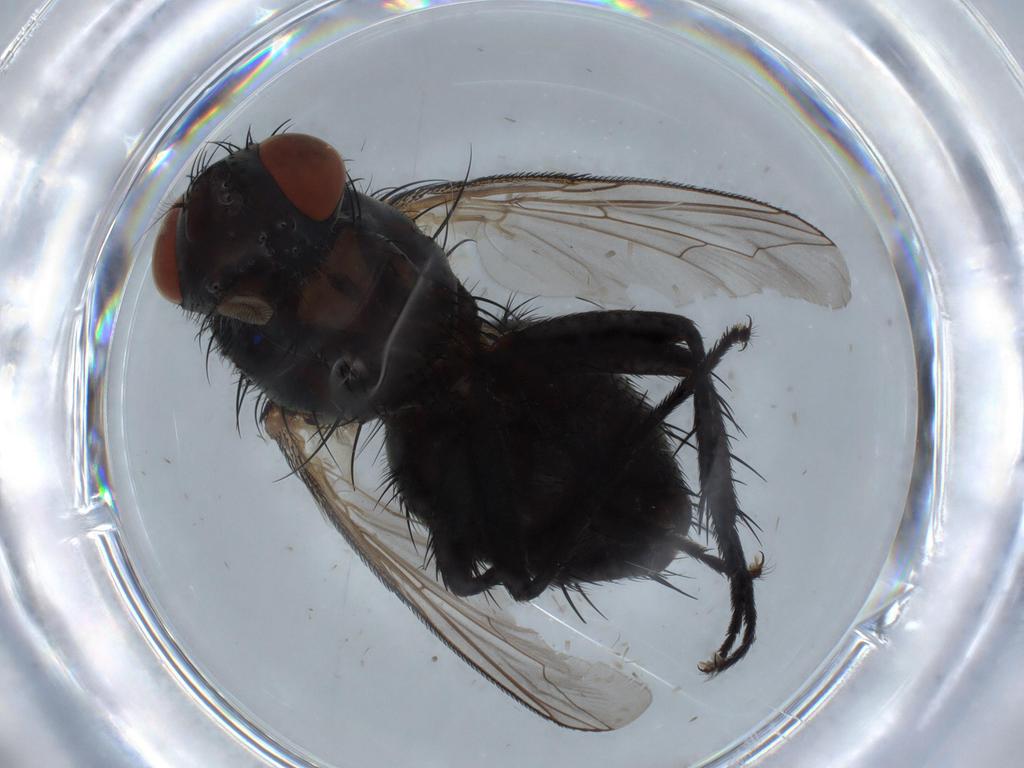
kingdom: Animalia
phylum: Arthropoda
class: Insecta
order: Diptera
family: Sarcophagidae
